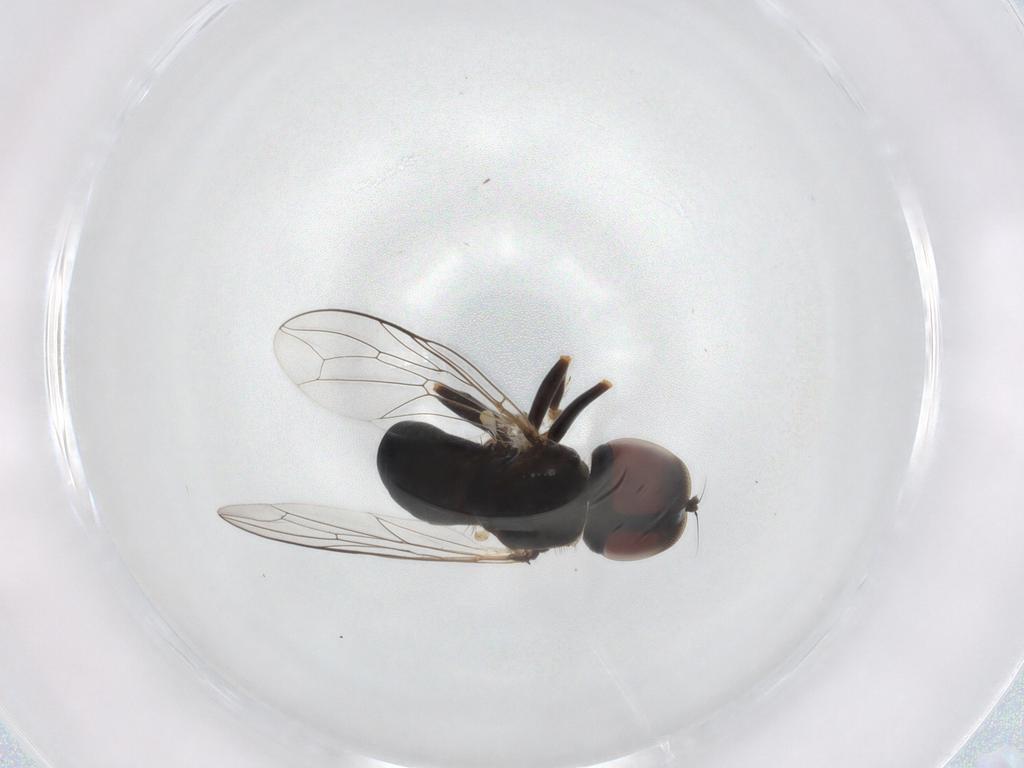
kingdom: Animalia
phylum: Arthropoda
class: Insecta
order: Diptera
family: Pipunculidae
